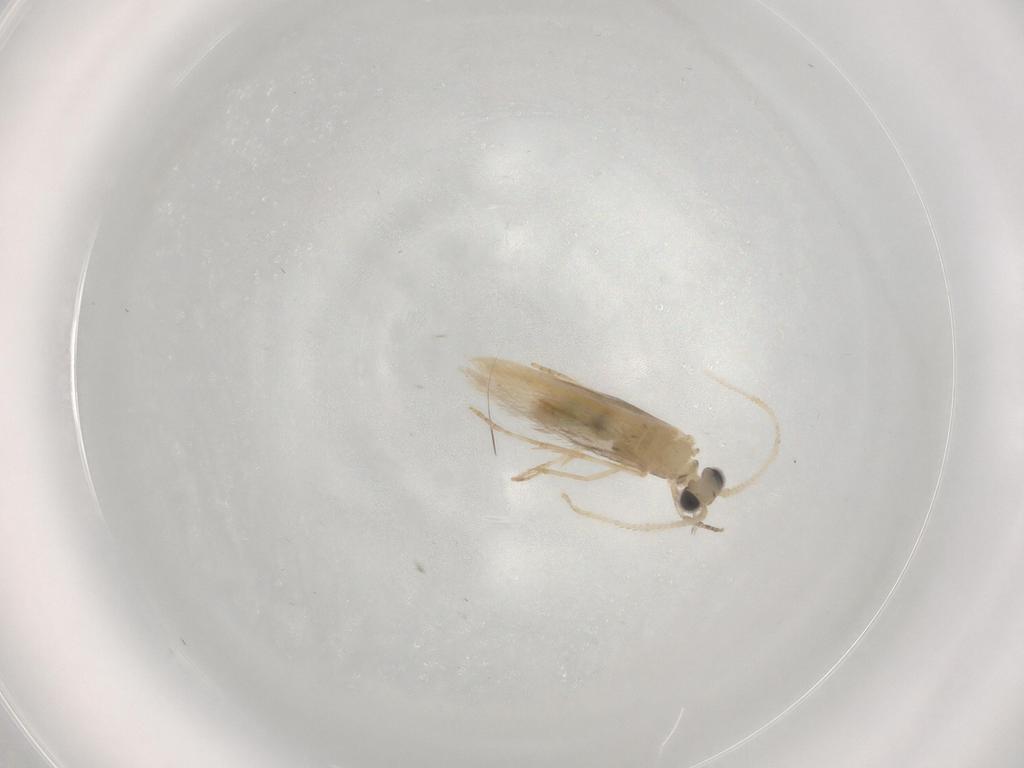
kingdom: Animalia
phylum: Arthropoda
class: Insecta
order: Trichoptera
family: Hydroptilidae
